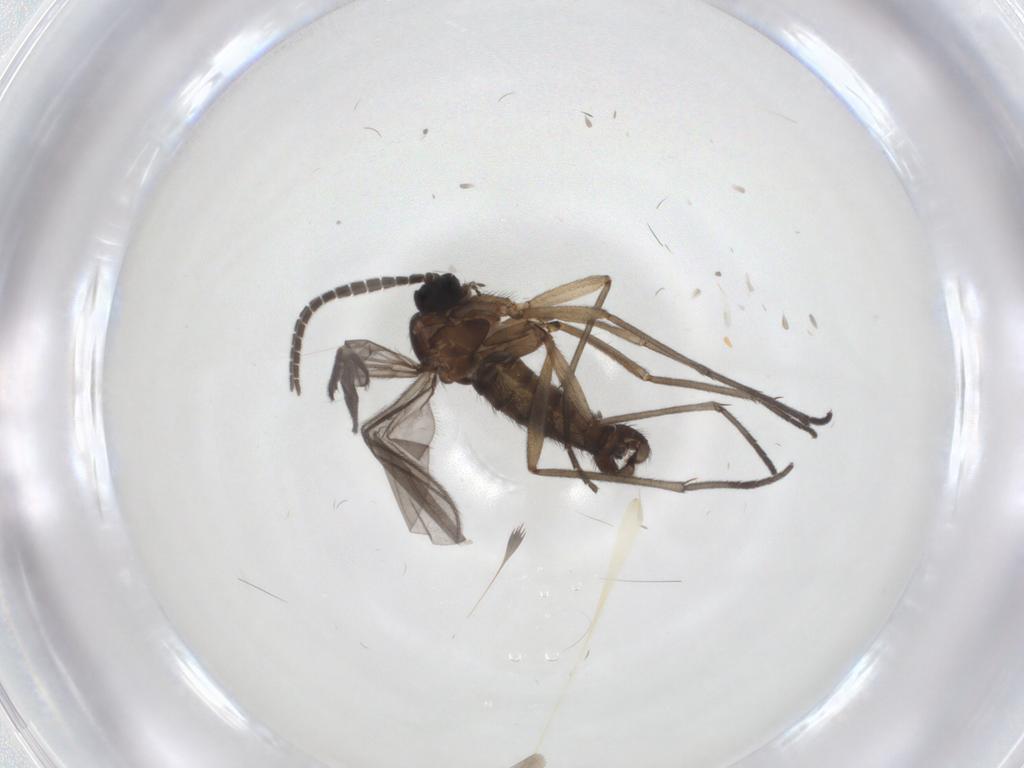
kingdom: Animalia
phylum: Arthropoda
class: Insecta
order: Diptera
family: Sciaridae
